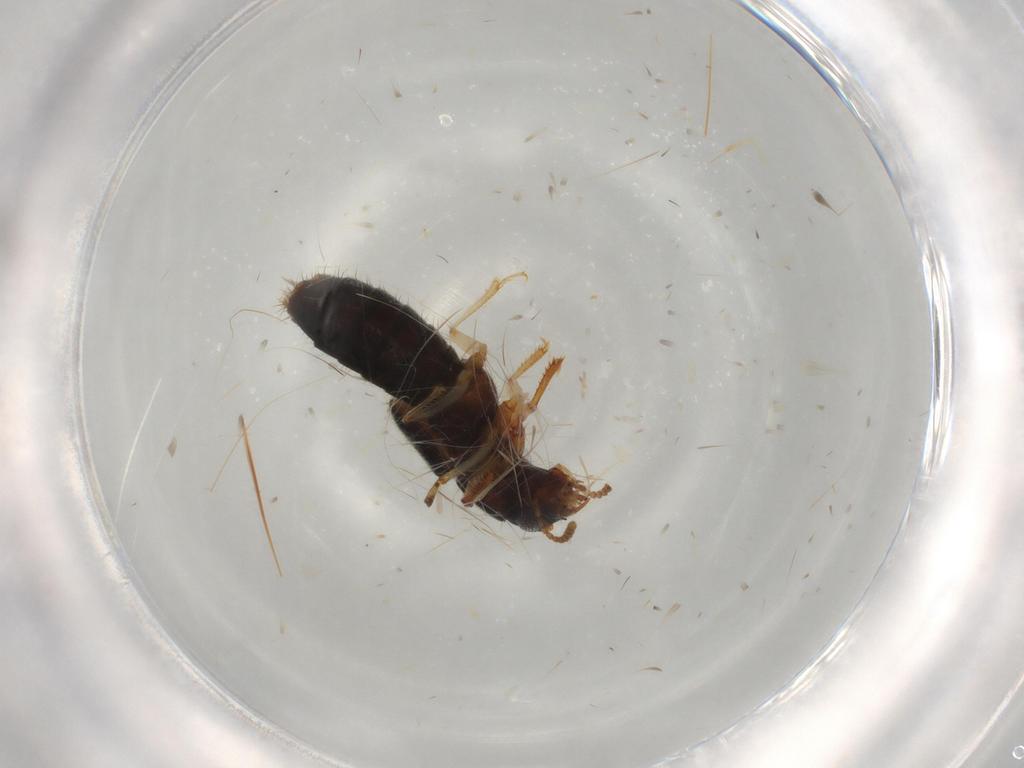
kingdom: Animalia
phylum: Arthropoda
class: Insecta
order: Coleoptera
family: Staphylinidae
